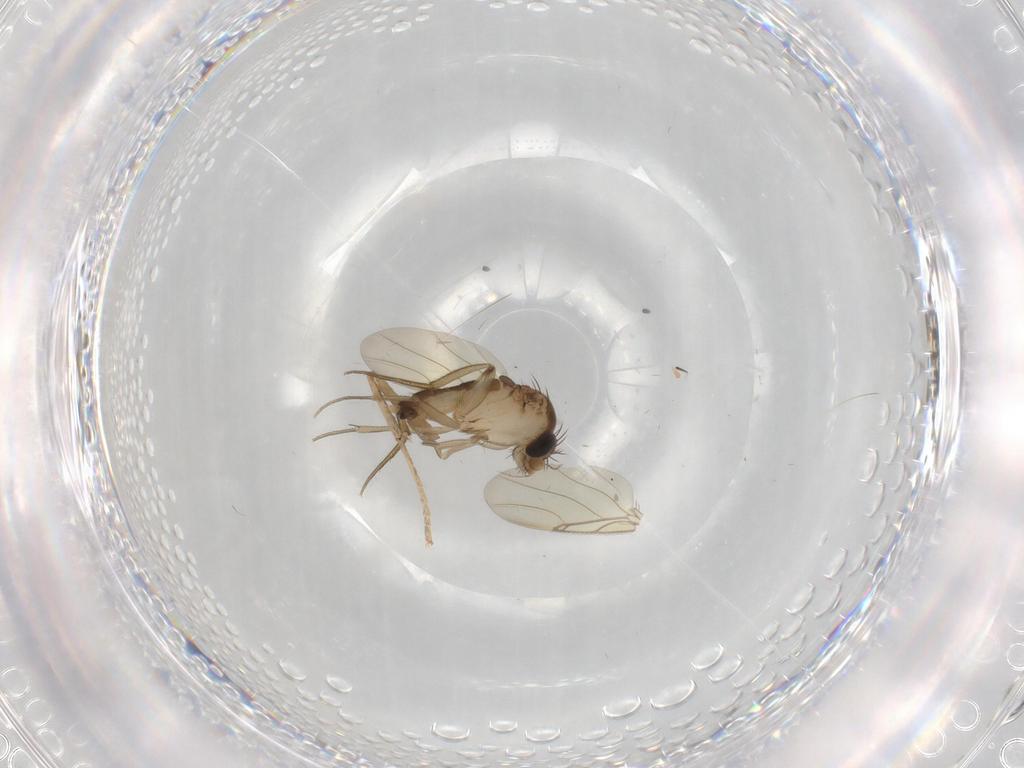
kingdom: Animalia
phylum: Arthropoda
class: Insecta
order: Diptera
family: Phoridae
